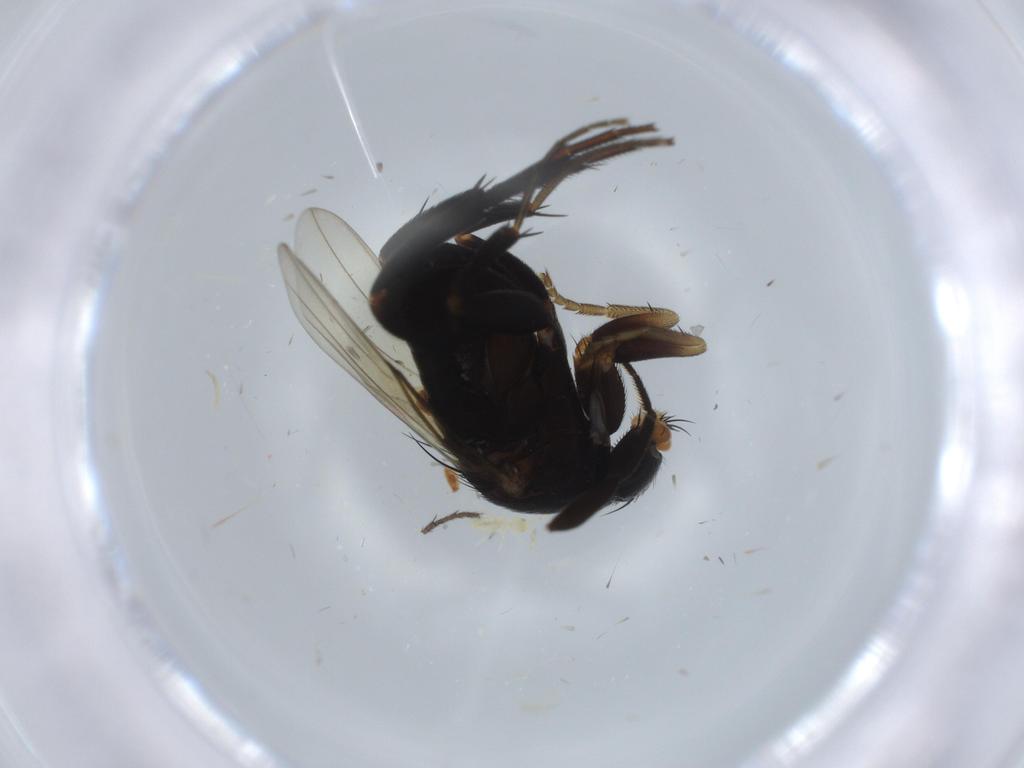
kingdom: Animalia
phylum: Arthropoda
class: Insecta
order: Diptera
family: Phoridae
